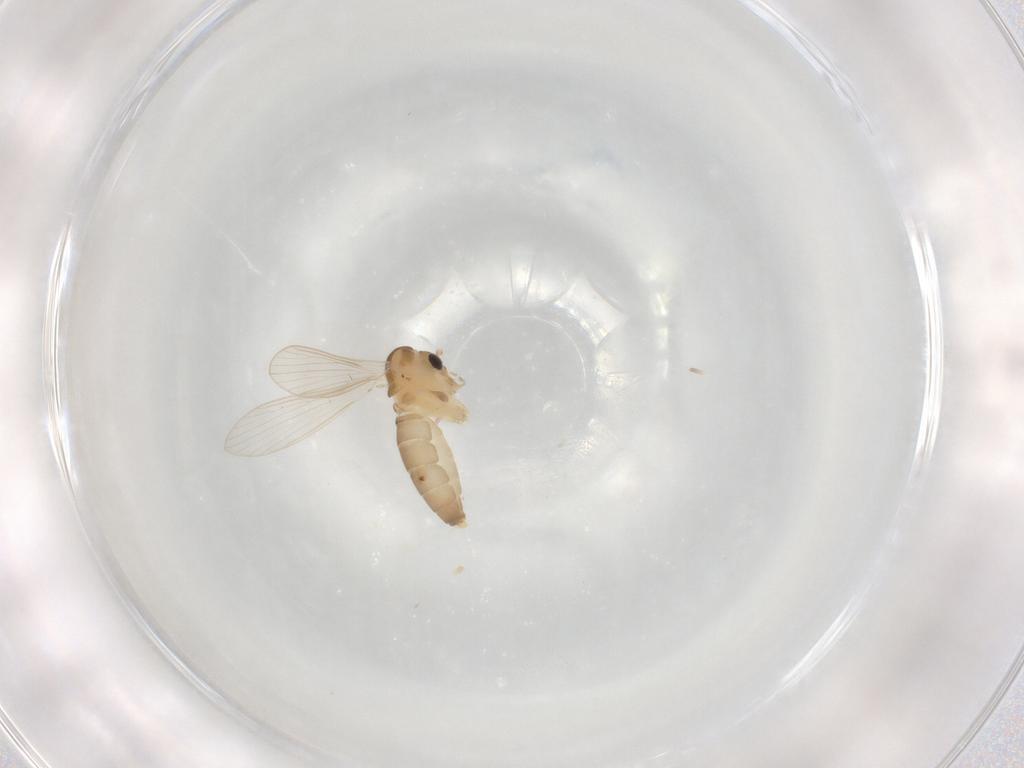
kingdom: Animalia
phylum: Arthropoda
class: Insecta
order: Diptera
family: Psychodidae
